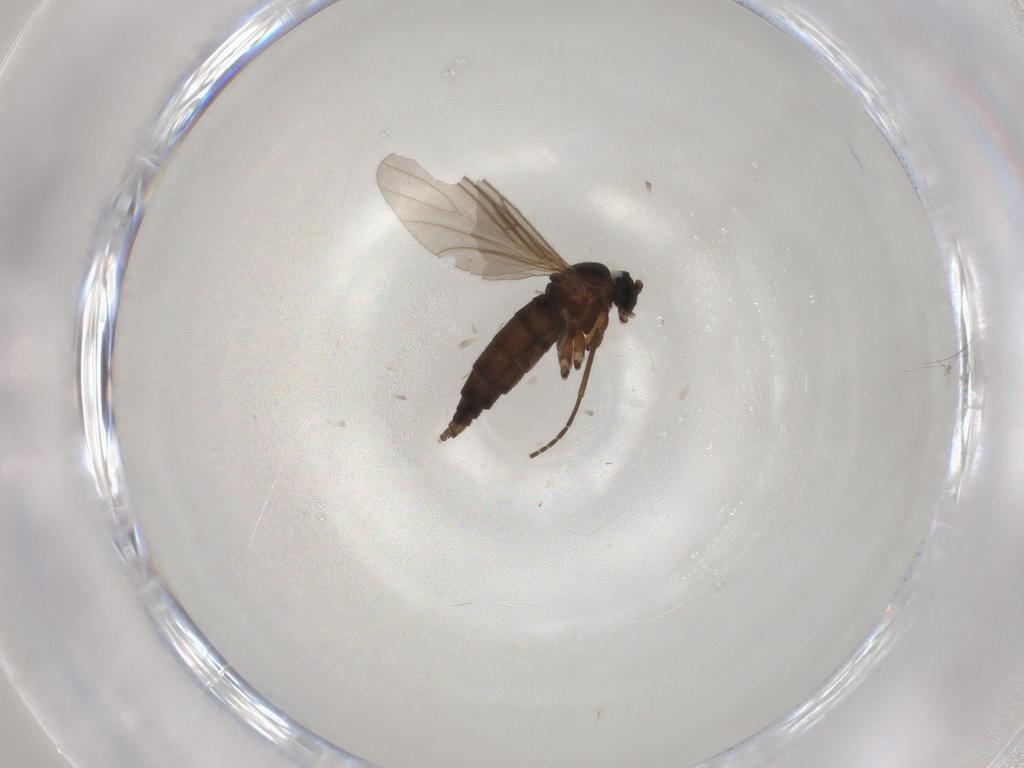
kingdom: Animalia
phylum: Arthropoda
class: Insecta
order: Diptera
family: Sciaridae
